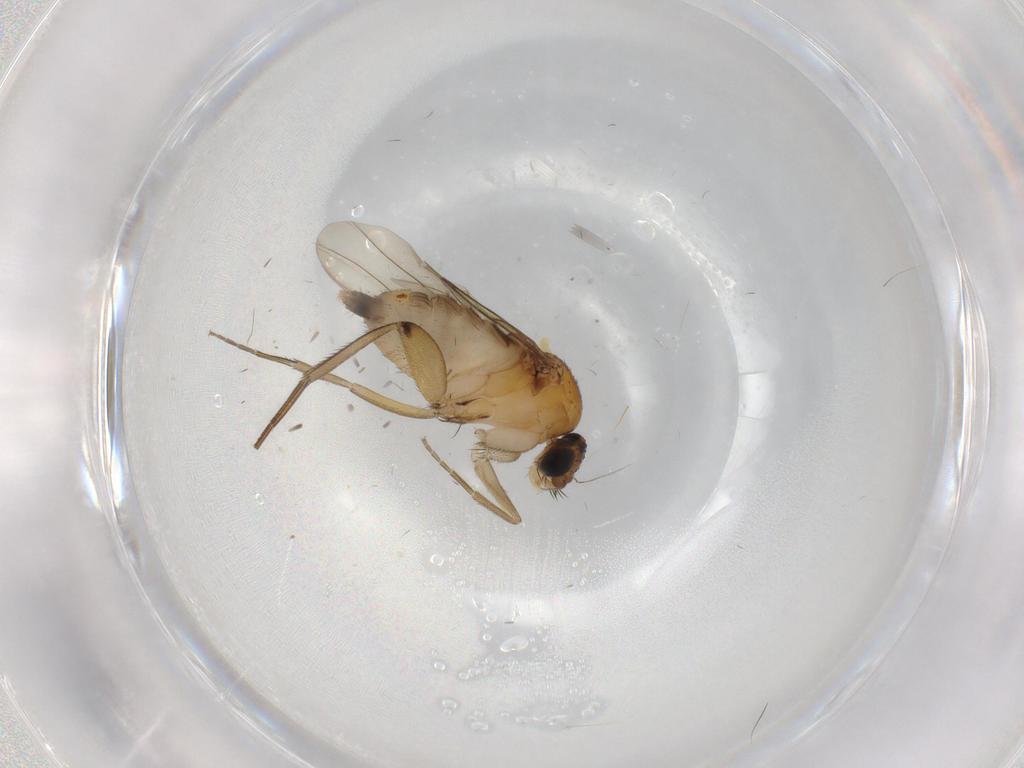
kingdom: Animalia
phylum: Arthropoda
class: Insecta
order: Diptera
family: Phoridae
